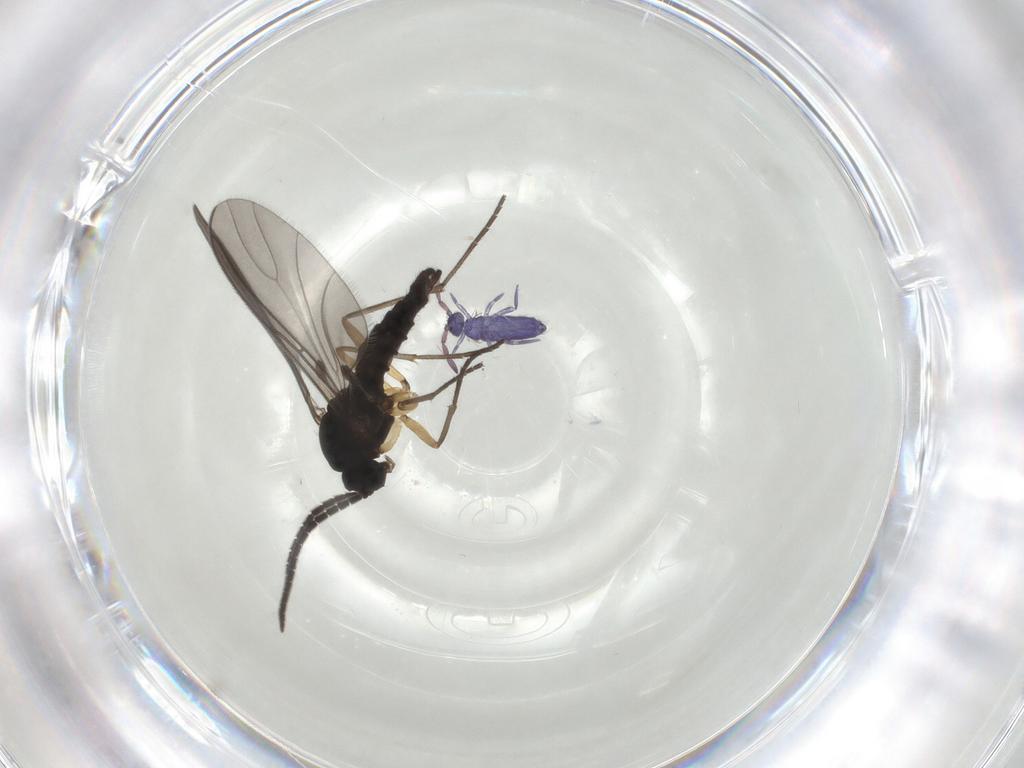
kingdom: Animalia
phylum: Arthropoda
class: Collembola
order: Entomobryomorpha
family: Entomobryidae
